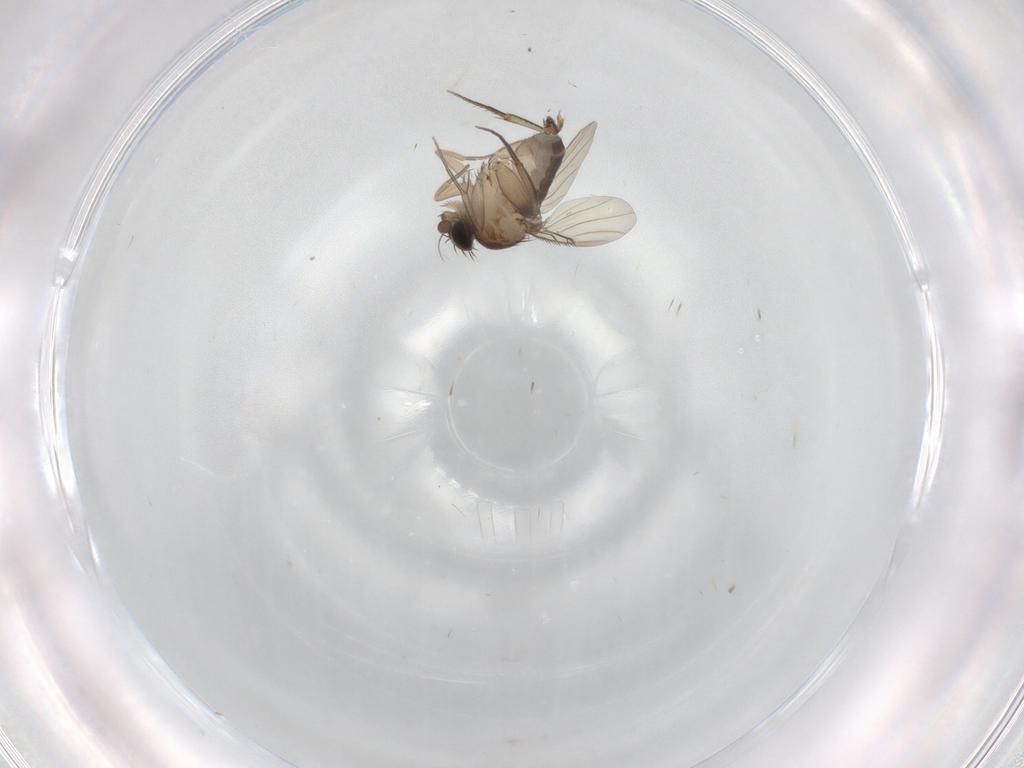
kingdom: Animalia
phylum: Arthropoda
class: Insecta
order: Diptera
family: Phoridae
